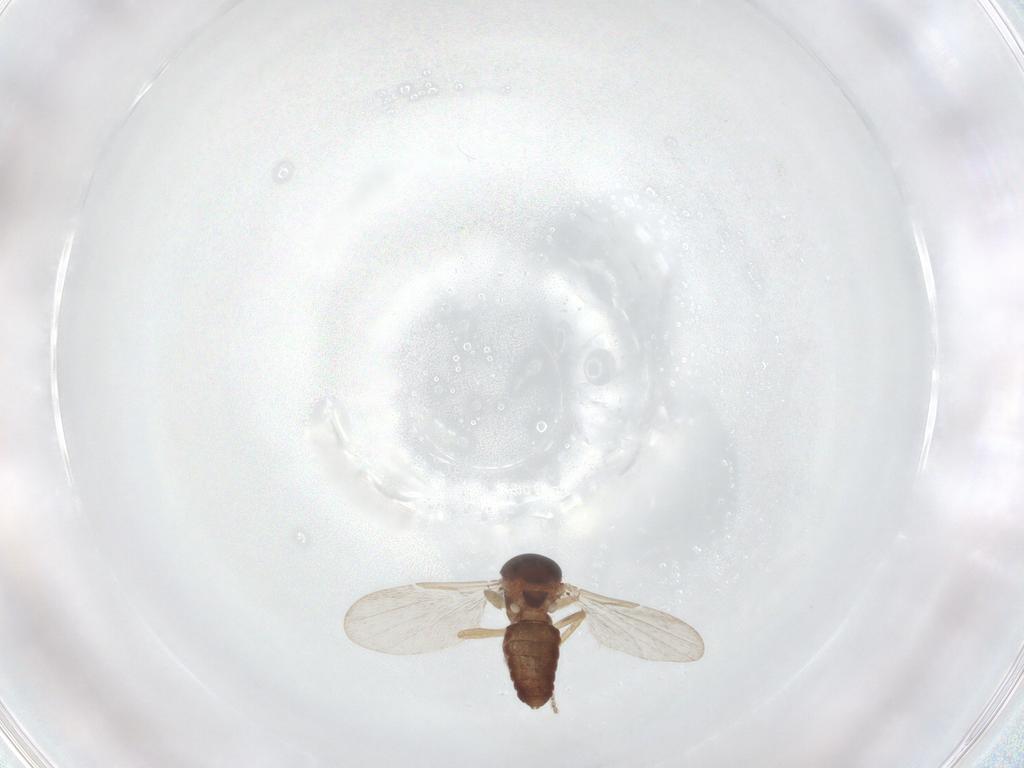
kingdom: Animalia
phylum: Arthropoda
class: Insecta
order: Diptera
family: Ceratopogonidae
